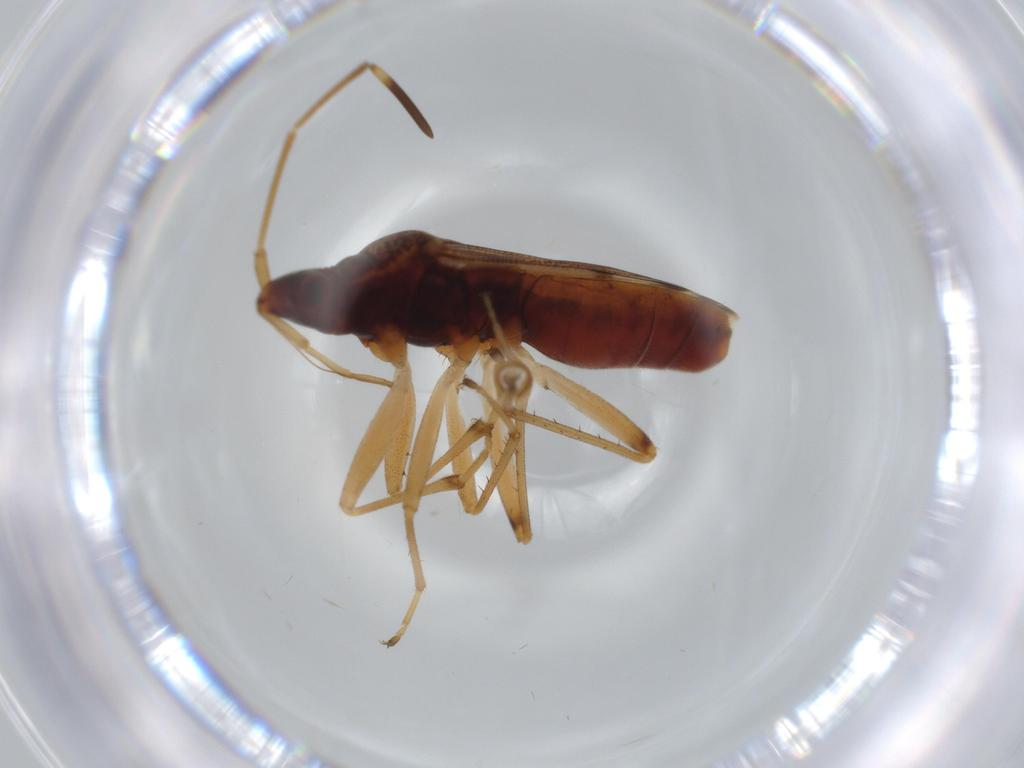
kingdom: Animalia
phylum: Arthropoda
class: Insecta
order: Hemiptera
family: Rhyparochromidae
